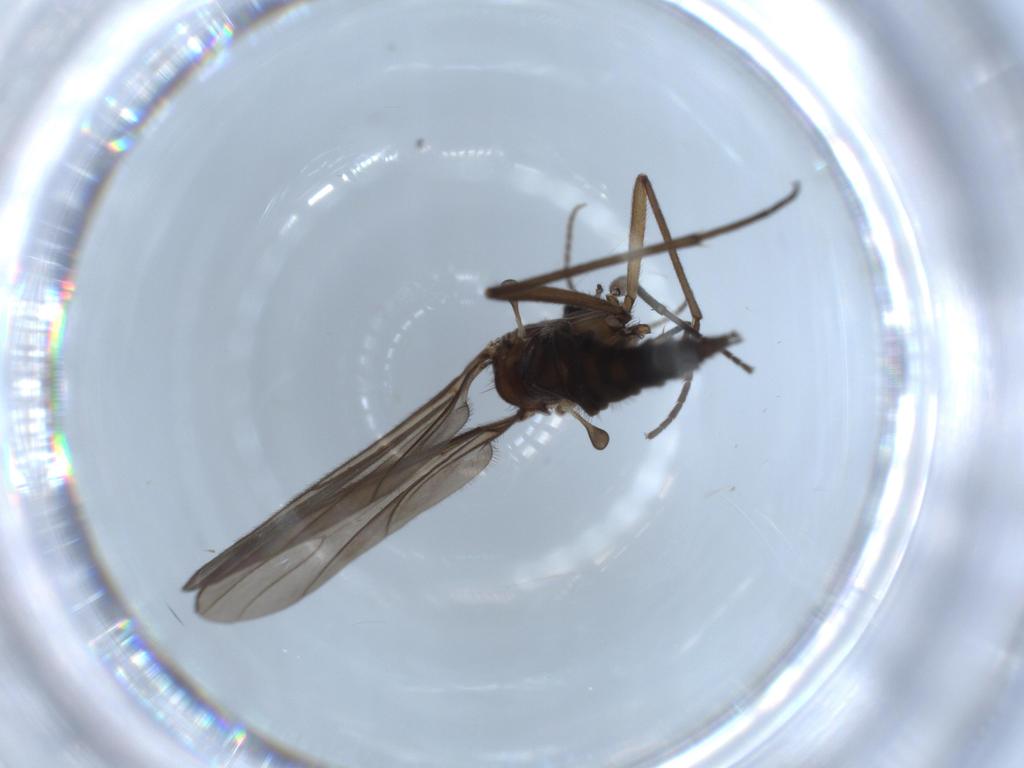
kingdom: Animalia
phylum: Arthropoda
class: Insecta
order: Diptera
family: Sciaridae
